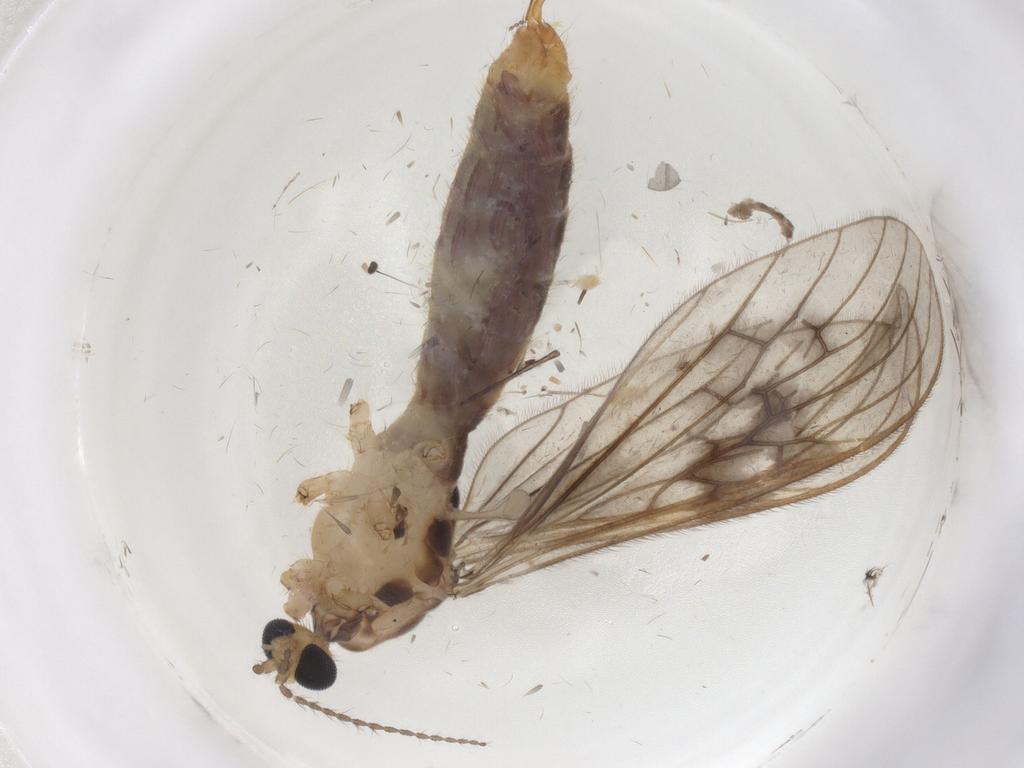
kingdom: Animalia
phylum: Arthropoda
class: Insecta
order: Diptera
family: Limoniidae
